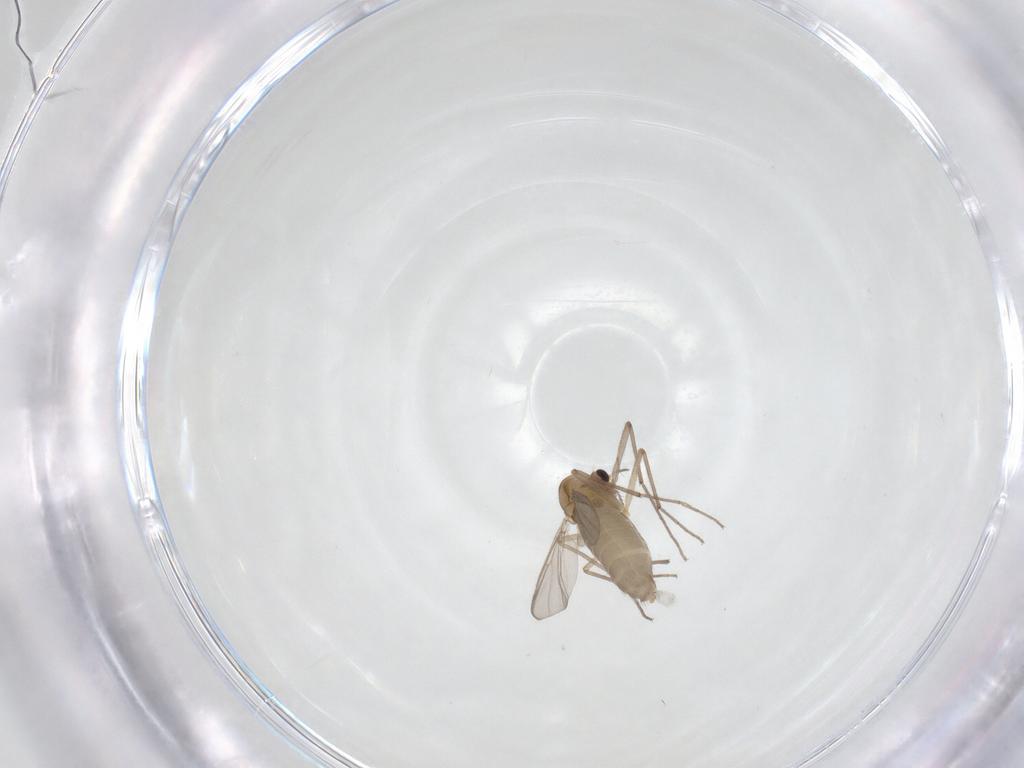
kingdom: Animalia
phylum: Arthropoda
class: Insecta
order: Diptera
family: Chironomidae
